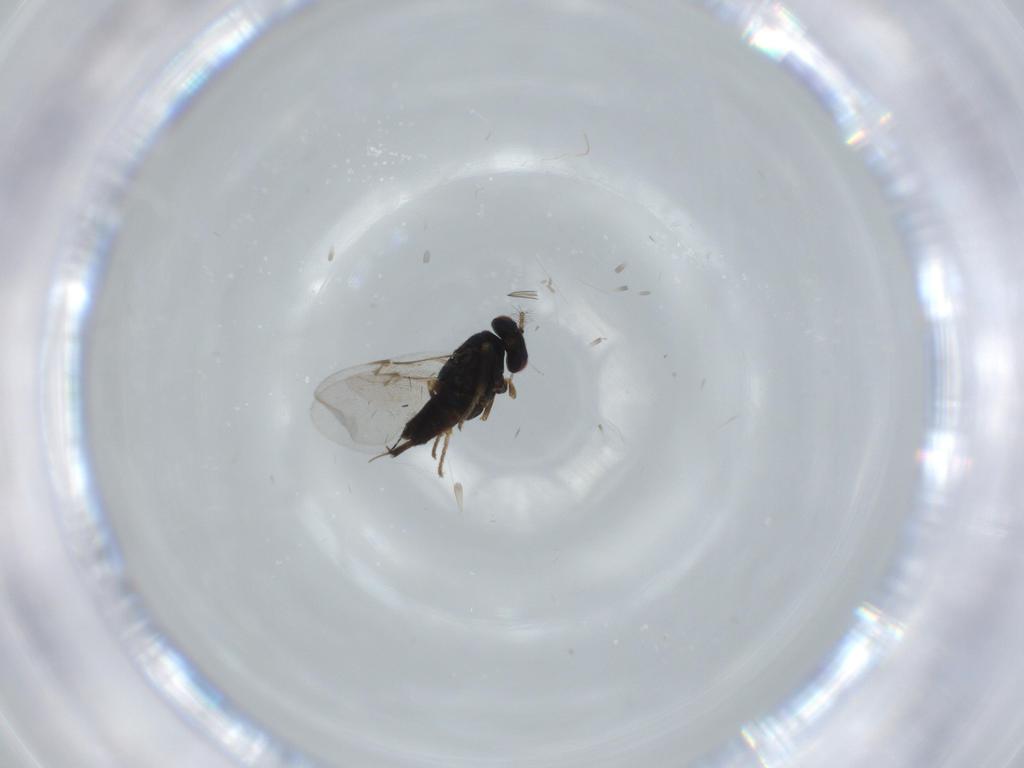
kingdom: Animalia
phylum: Arthropoda
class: Insecta
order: Hymenoptera
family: Encyrtidae
